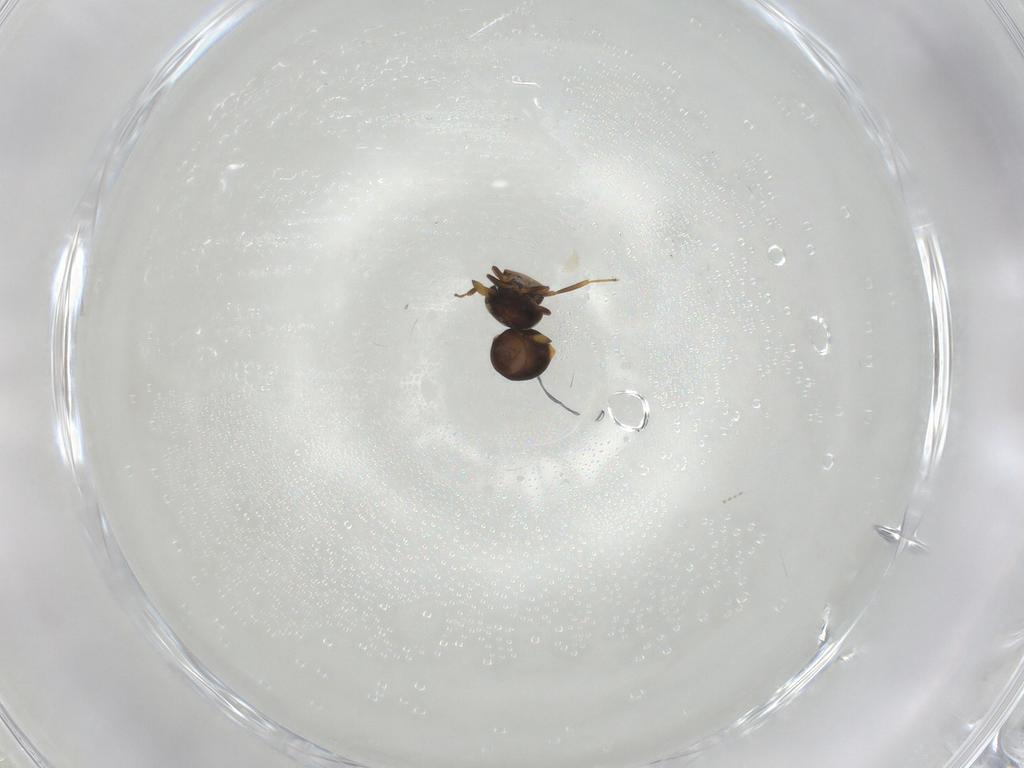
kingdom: Animalia
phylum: Arthropoda
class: Insecta
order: Hymenoptera
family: Scelionidae
